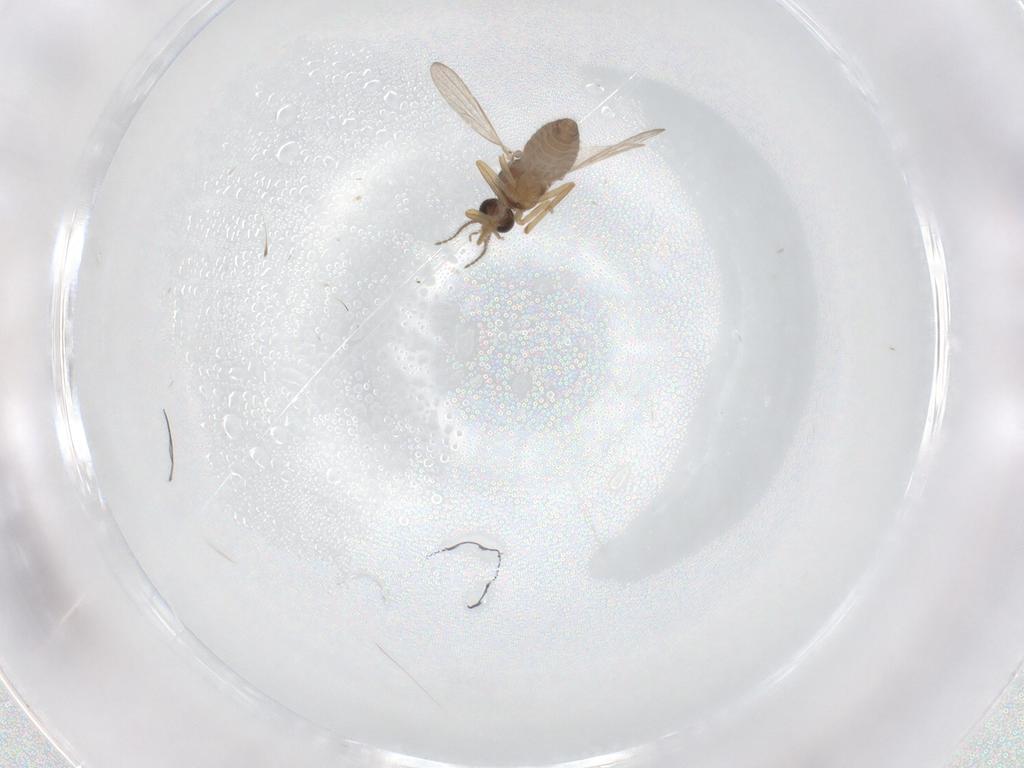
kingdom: Animalia
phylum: Arthropoda
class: Insecta
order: Diptera
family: Ceratopogonidae
